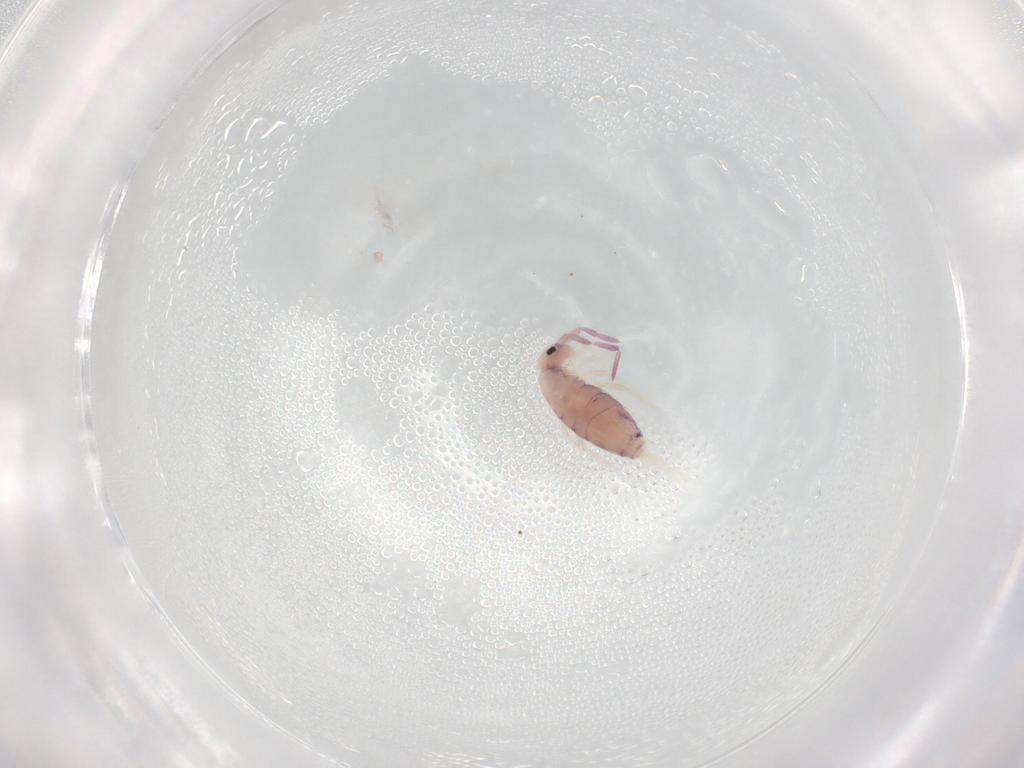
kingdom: Animalia
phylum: Arthropoda
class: Collembola
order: Entomobryomorpha
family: Entomobryidae
